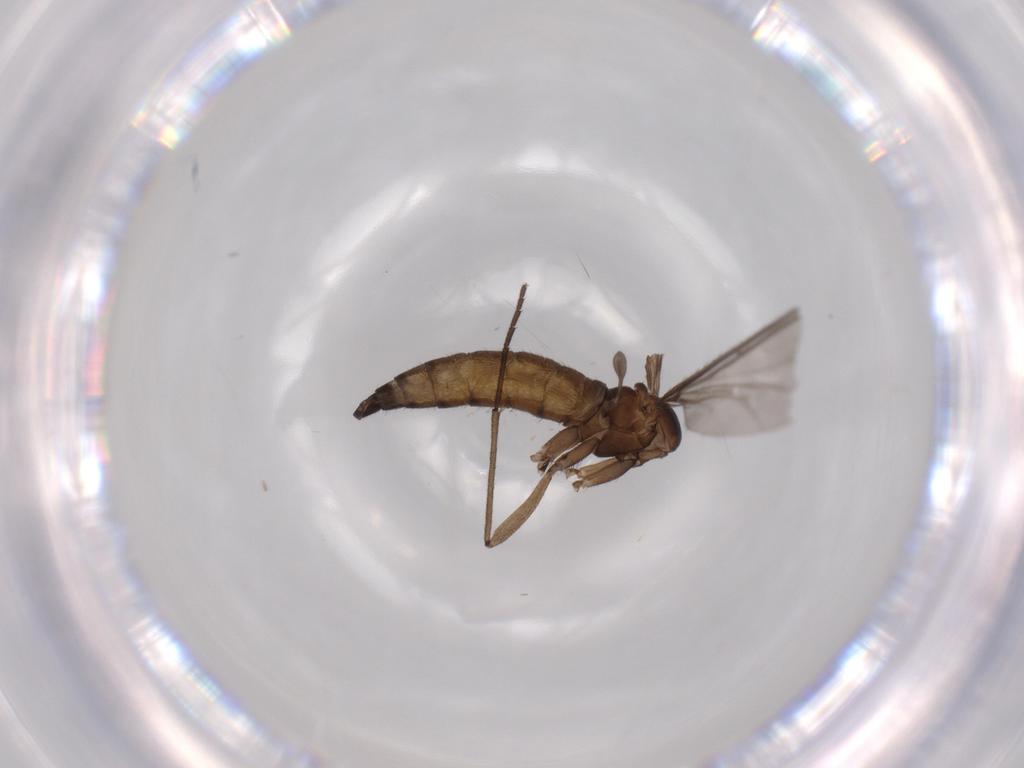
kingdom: Animalia
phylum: Arthropoda
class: Insecta
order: Diptera
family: Sciaridae
